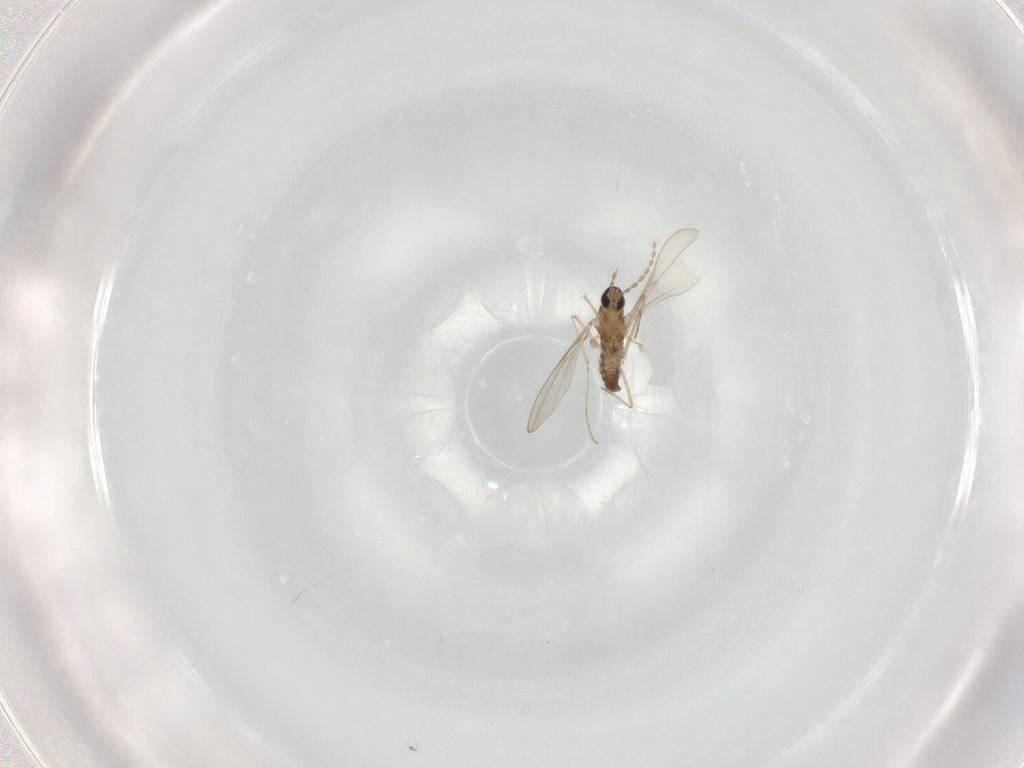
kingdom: Animalia
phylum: Arthropoda
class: Insecta
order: Diptera
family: Cecidomyiidae
